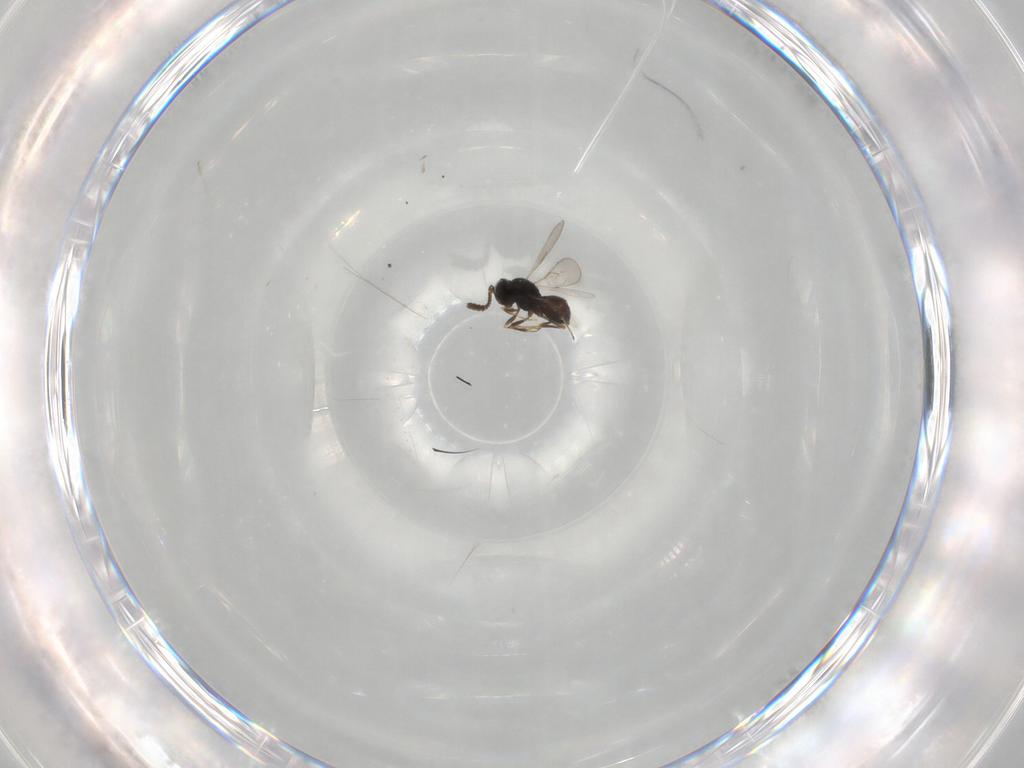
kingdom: Animalia
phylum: Arthropoda
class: Insecta
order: Hymenoptera
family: Scelionidae
